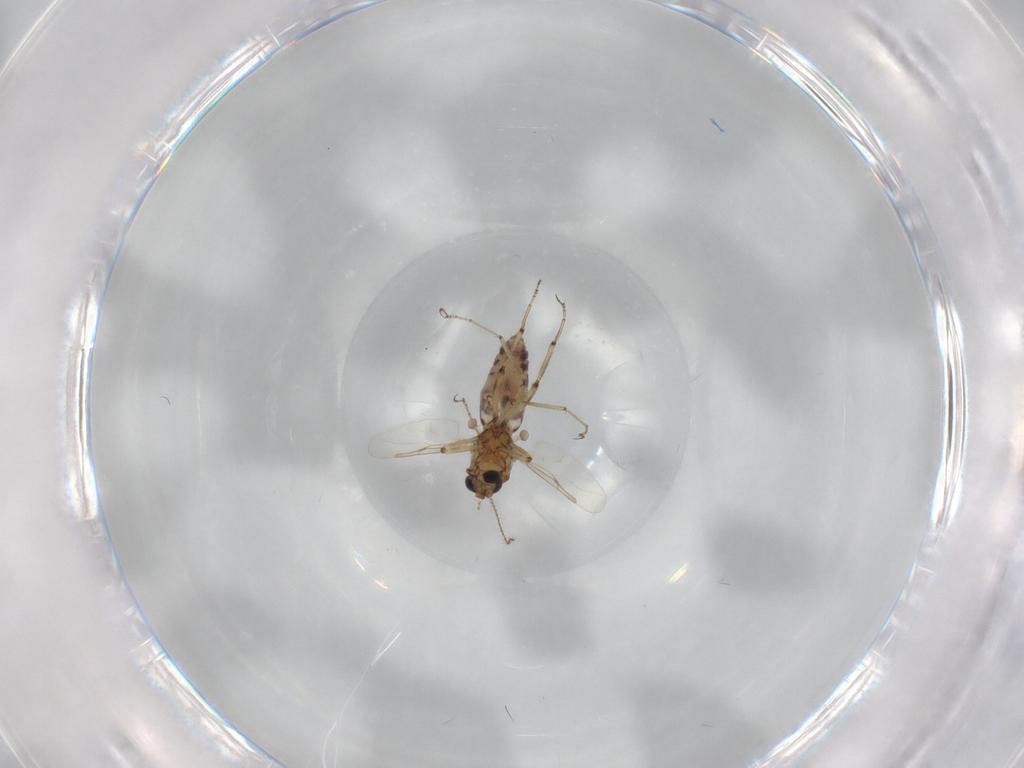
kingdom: Animalia
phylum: Arthropoda
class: Insecta
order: Diptera
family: Ceratopogonidae
